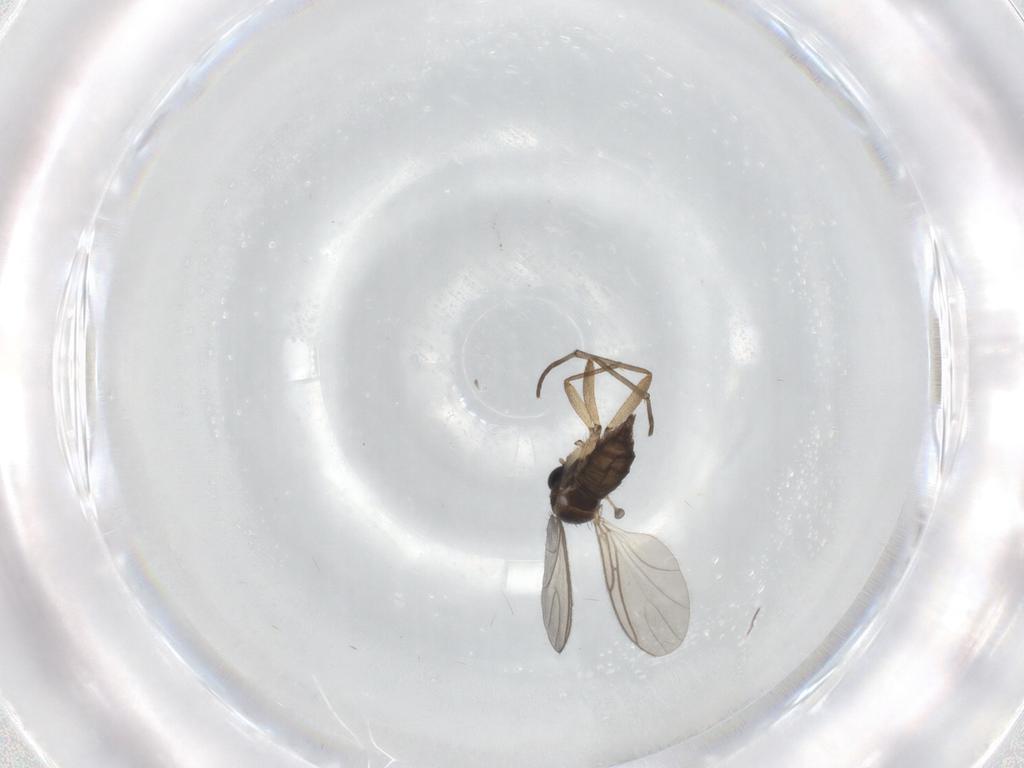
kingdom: Animalia
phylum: Arthropoda
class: Insecta
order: Diptera
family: Sciaridae
